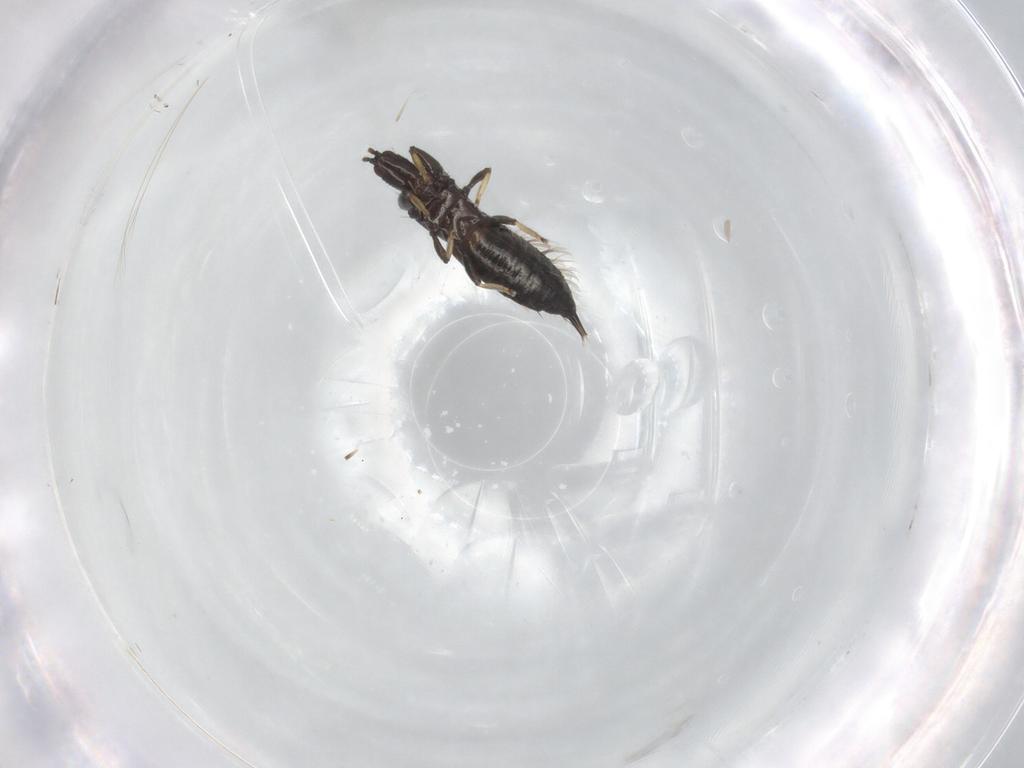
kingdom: Animalia
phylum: Arthropoda
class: Insecta
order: Thysanoptera
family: Phlaeothripidae
